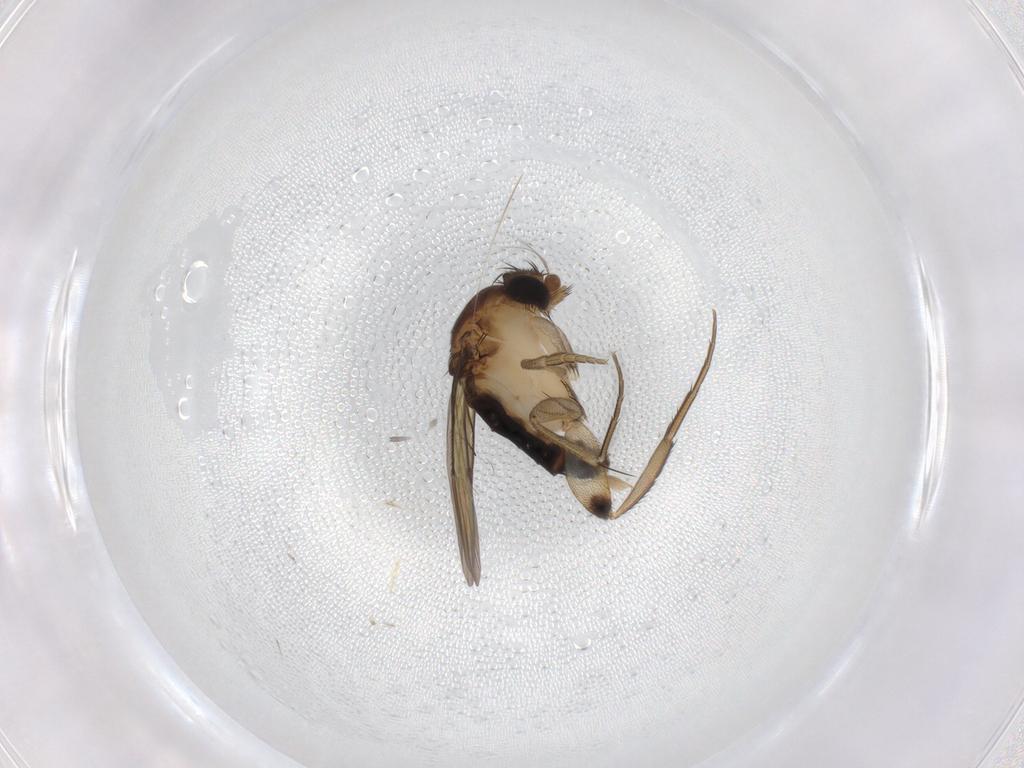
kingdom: Animalia
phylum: Arthropoda
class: Insecta
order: Diptera
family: Phoridae
